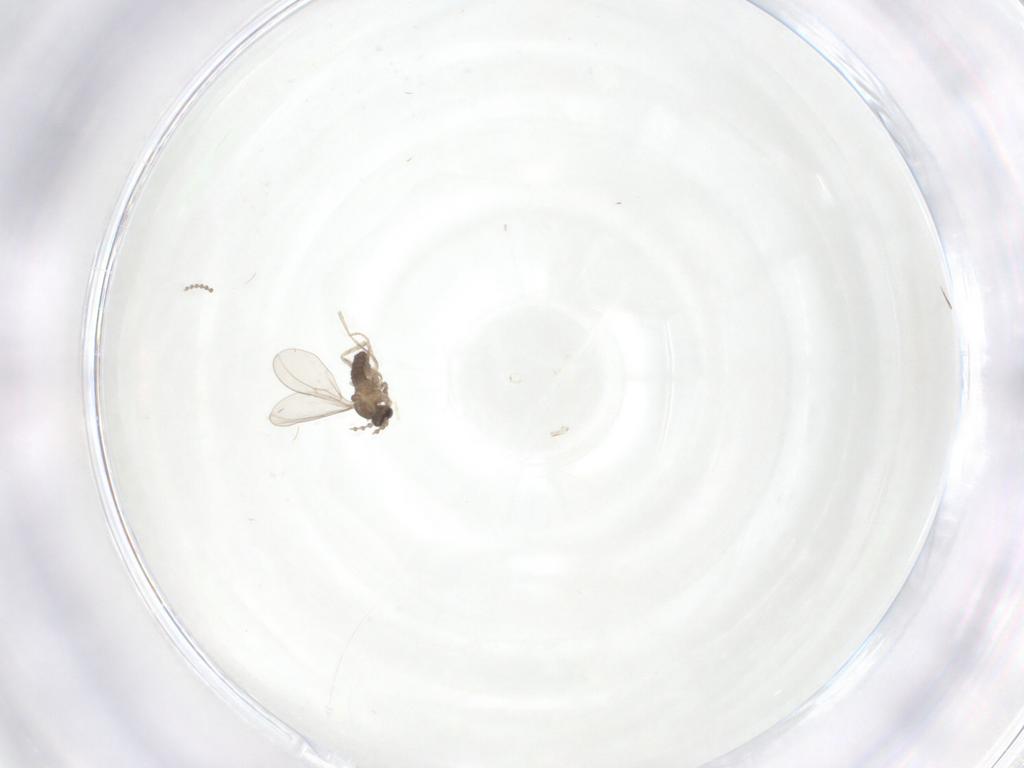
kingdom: Animalia
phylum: Arthropoda
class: Insecta
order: Diptera
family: Cecidomyiidae
